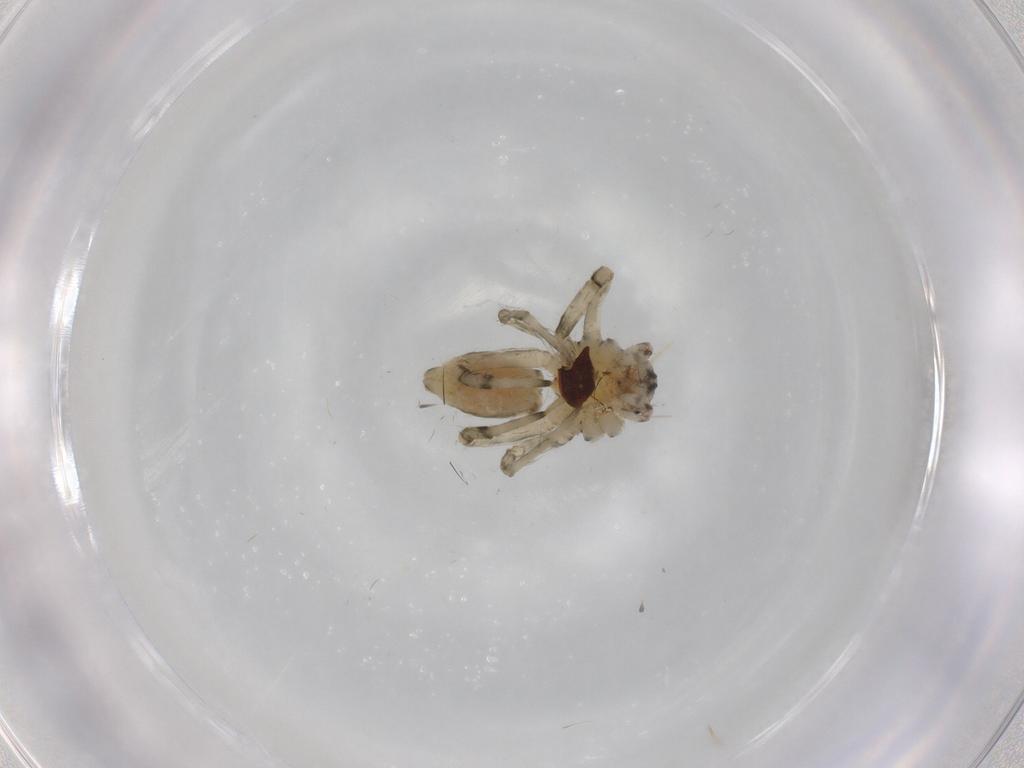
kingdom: Animalia
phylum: Arthropoda
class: Arachnida
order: Araneae
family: Senoculidae
